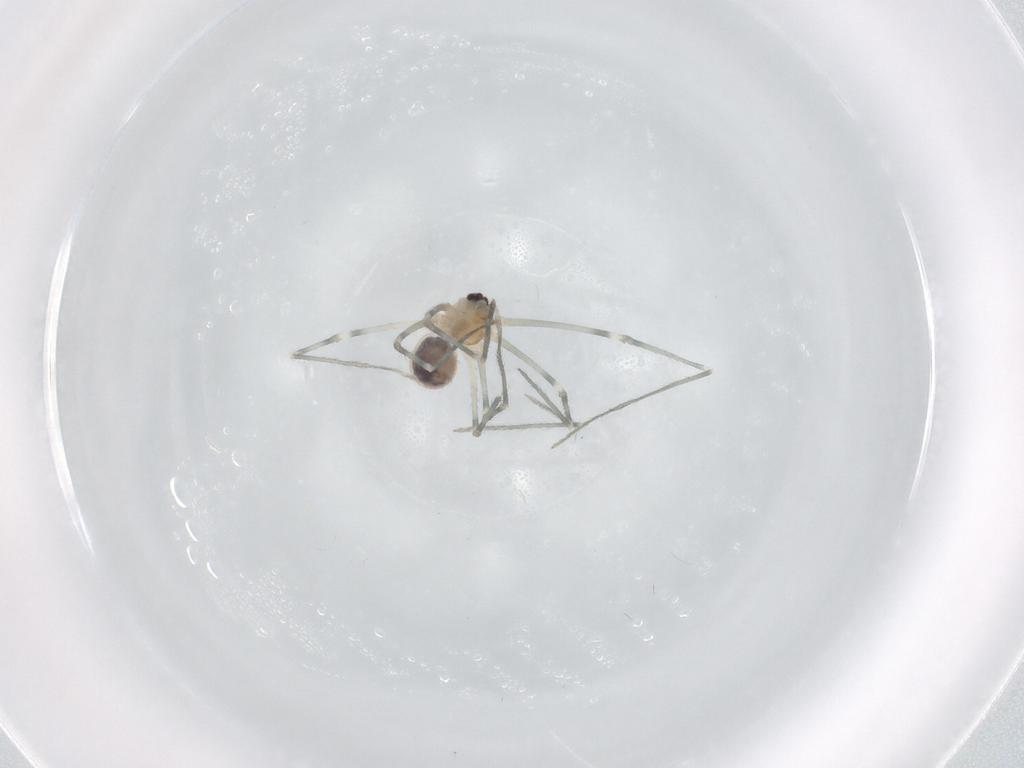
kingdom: Animalia
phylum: Arthropoda
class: Arachnida
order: Araneae
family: Pholcidae
